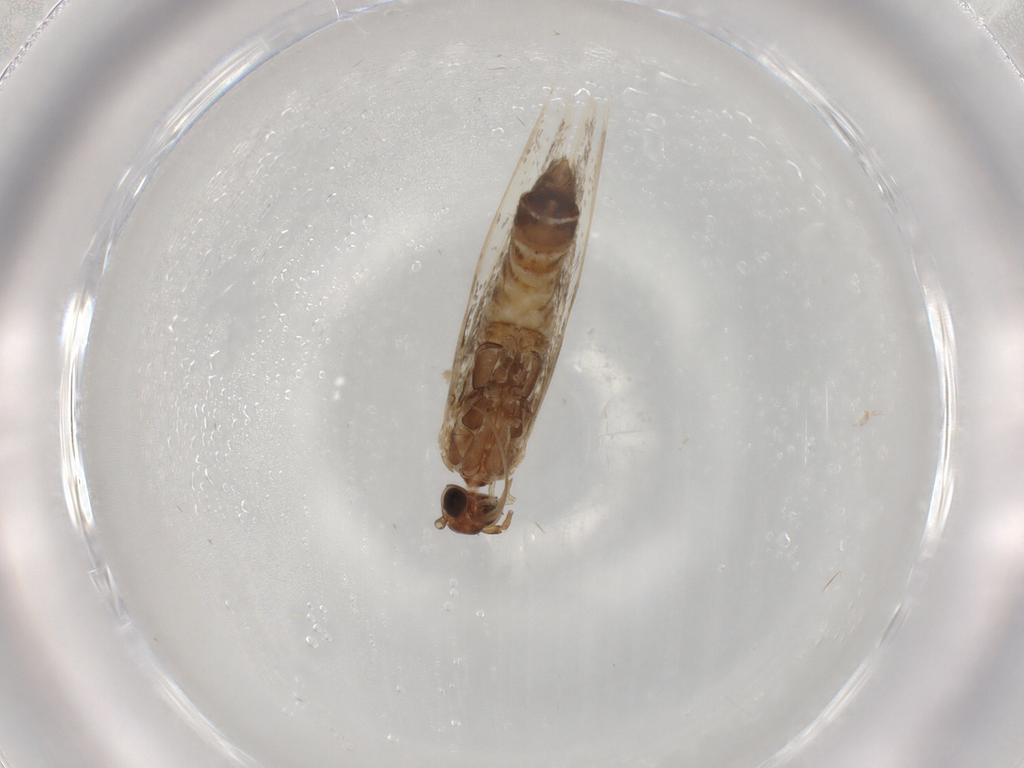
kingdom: Animalia
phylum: Arthropoda
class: Insecta
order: Lepidoptera
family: Gracillariidae
